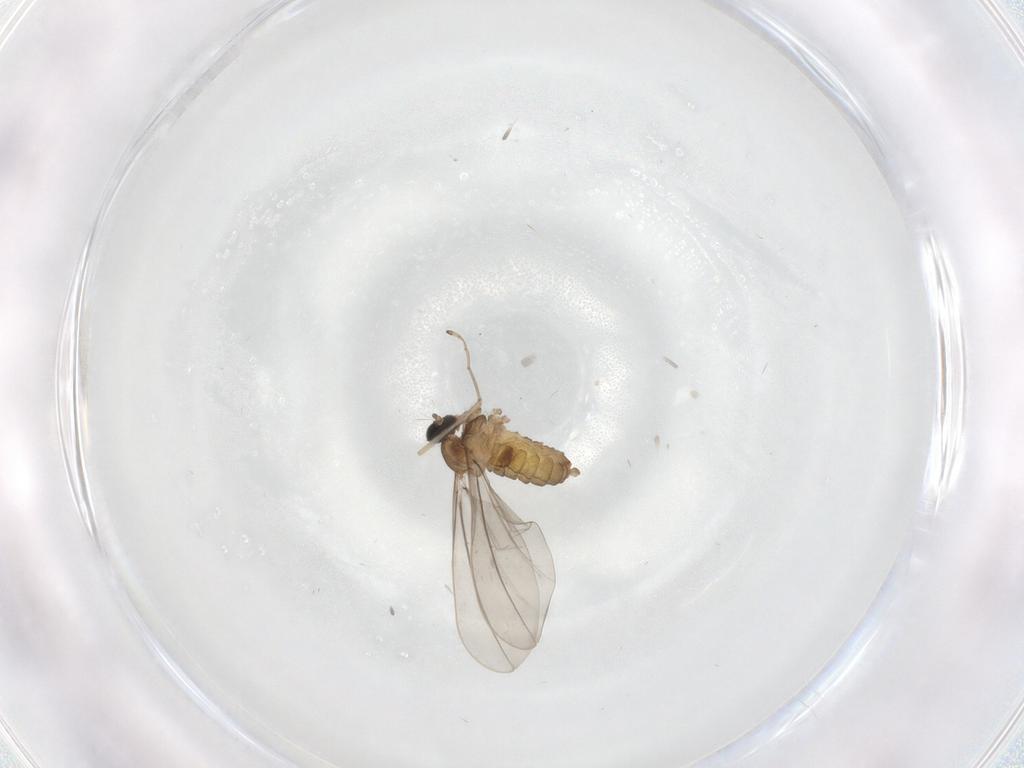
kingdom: Animalia
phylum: Arthropoda
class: Insecta
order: Diptera
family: Cecidomyiidae
